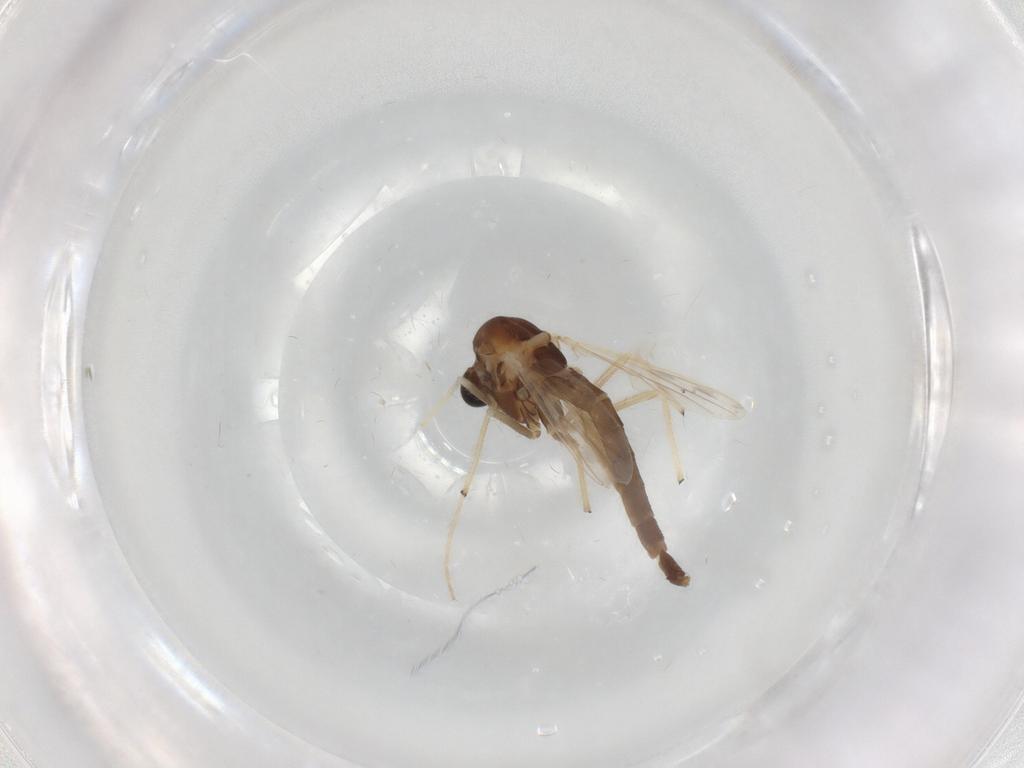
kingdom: Animalia
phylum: Arthropoda
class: Insecta
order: Diptera
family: Chironomidae
